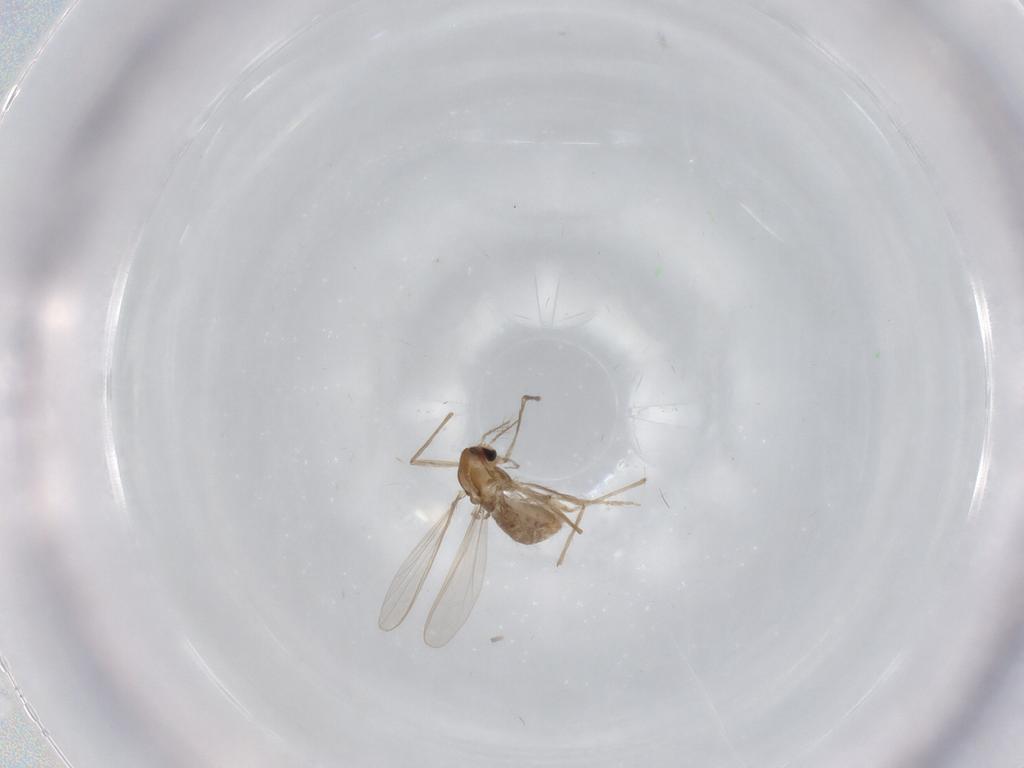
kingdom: Animalia
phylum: Arthropoda
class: Insecta
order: Diptera
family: Chironomidae
